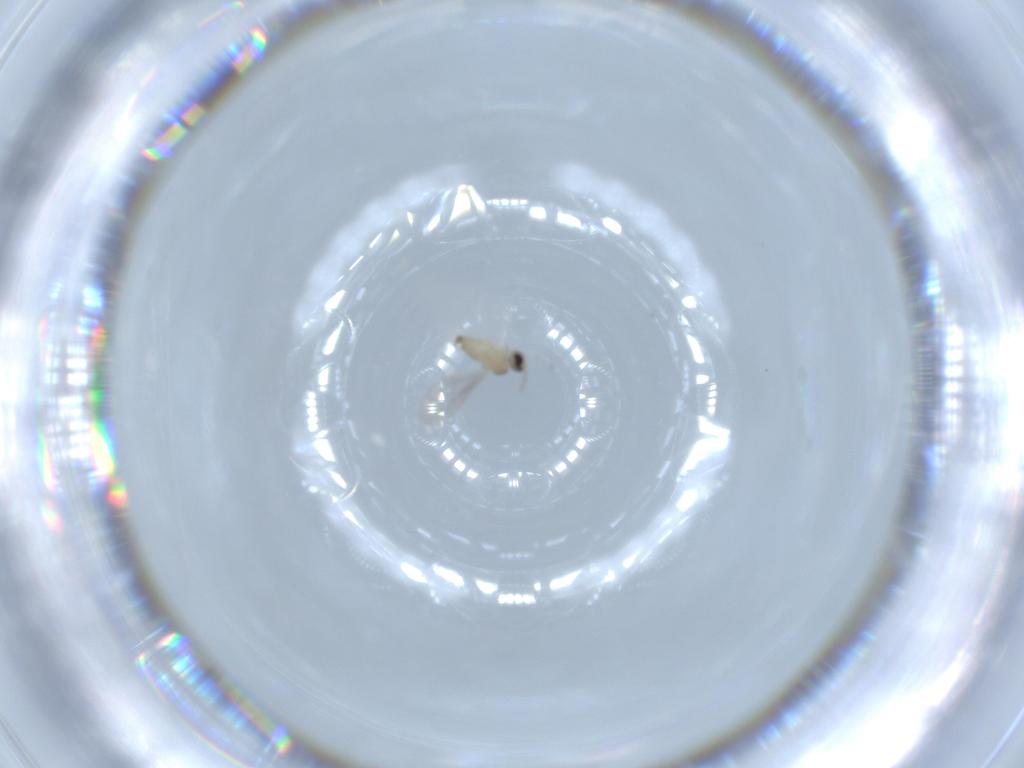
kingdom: Animalia
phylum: Arthropoda
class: Insecta
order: Diptera
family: Cecidomyiidae
